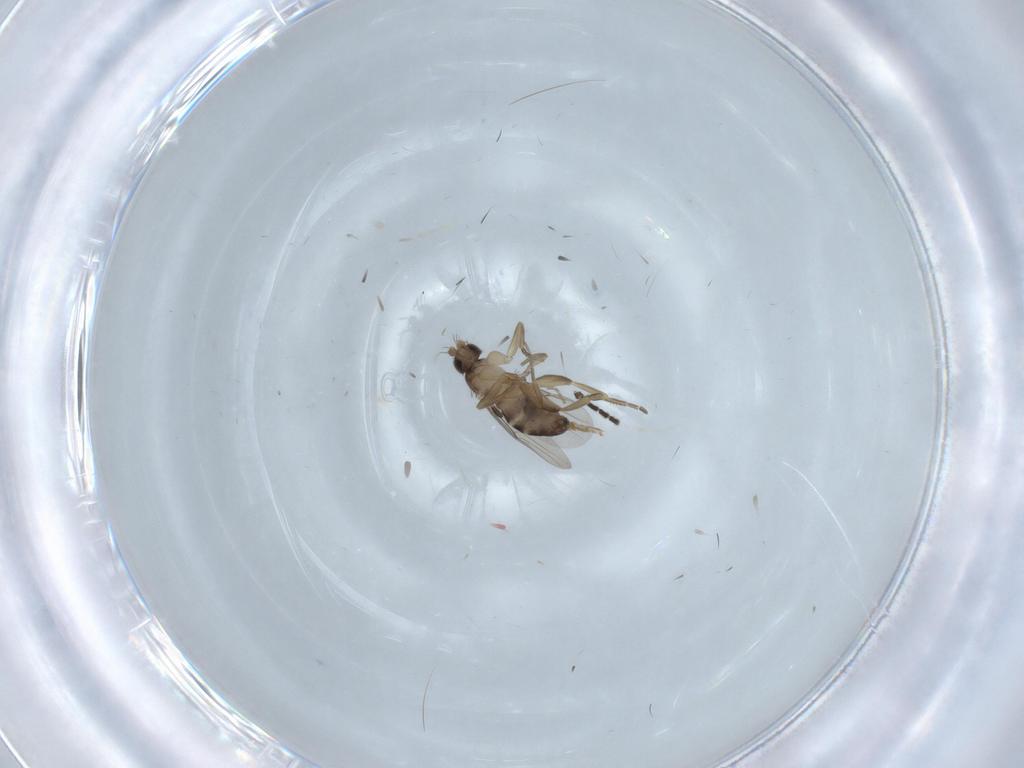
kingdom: Animalia
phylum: Arthropoda
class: Insecta
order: Diptera
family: Sciaridae
